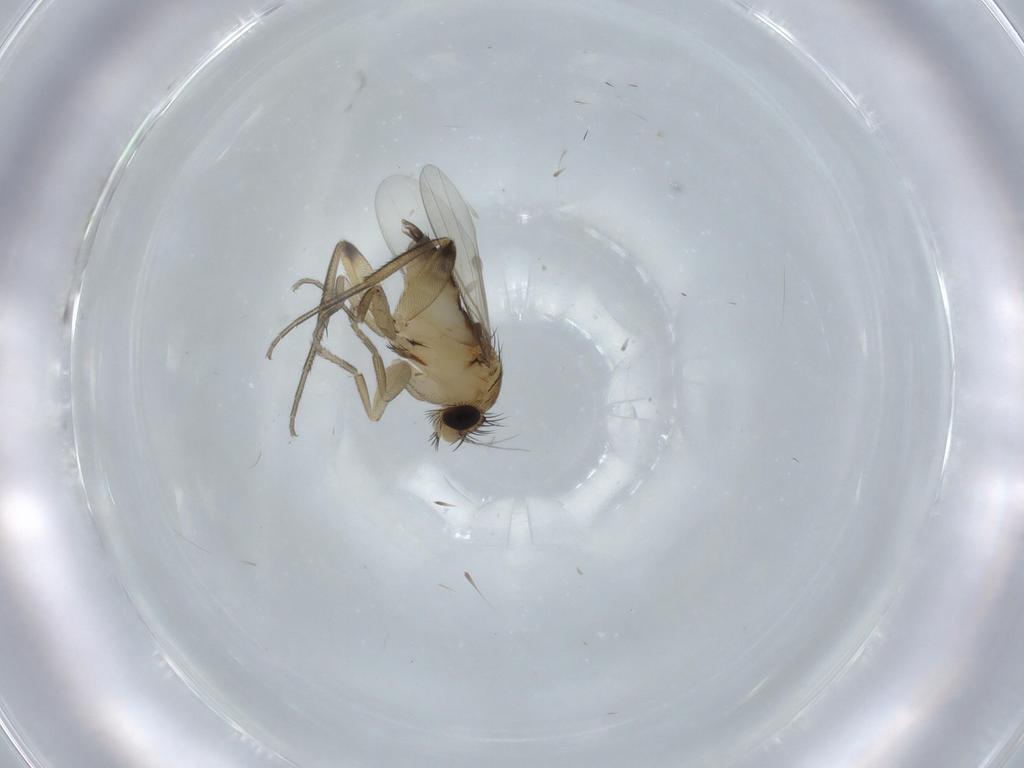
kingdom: Animalia
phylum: Arthropoda
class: Insecta
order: Diptera
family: Phoridae
